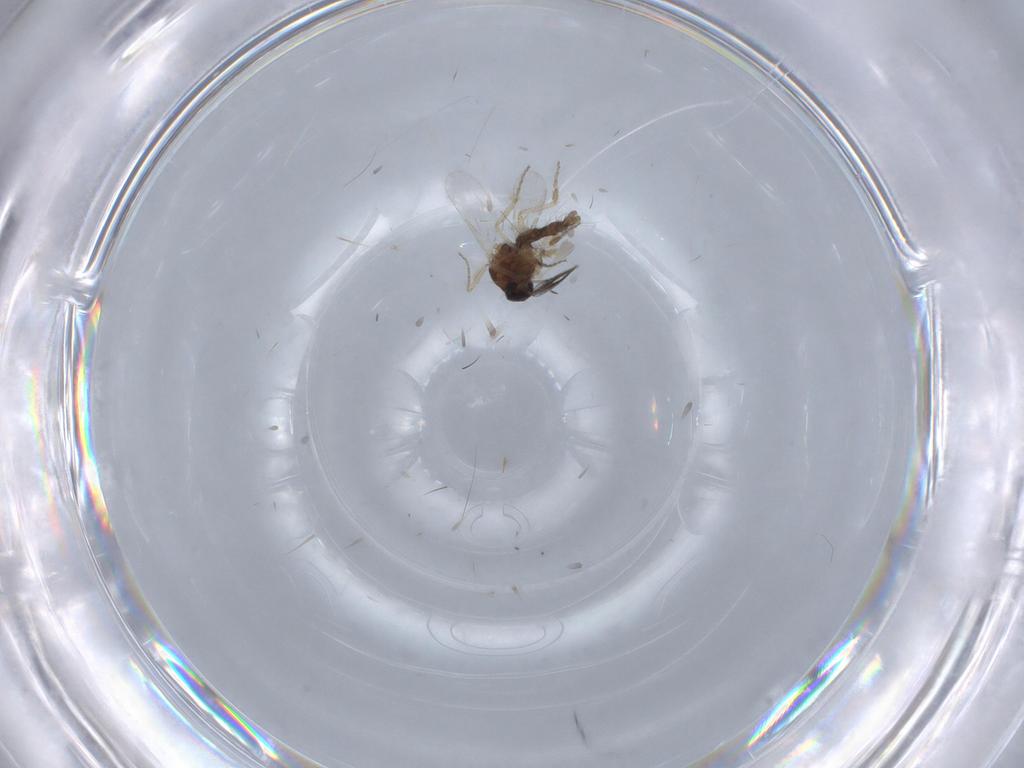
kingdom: Animalia
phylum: Arthropoda
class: Insecta
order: Diptera
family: Ceratopogonidae
